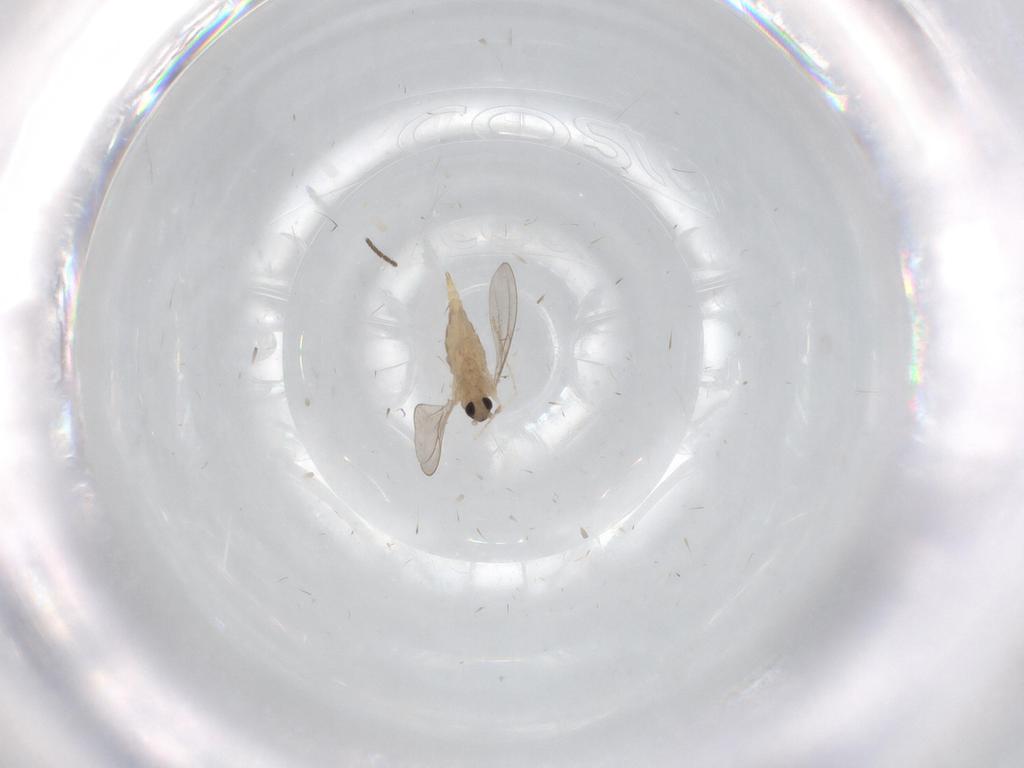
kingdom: Animalia
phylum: Arthropoda
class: Insecta
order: Diptera
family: Cecidomyiidae
